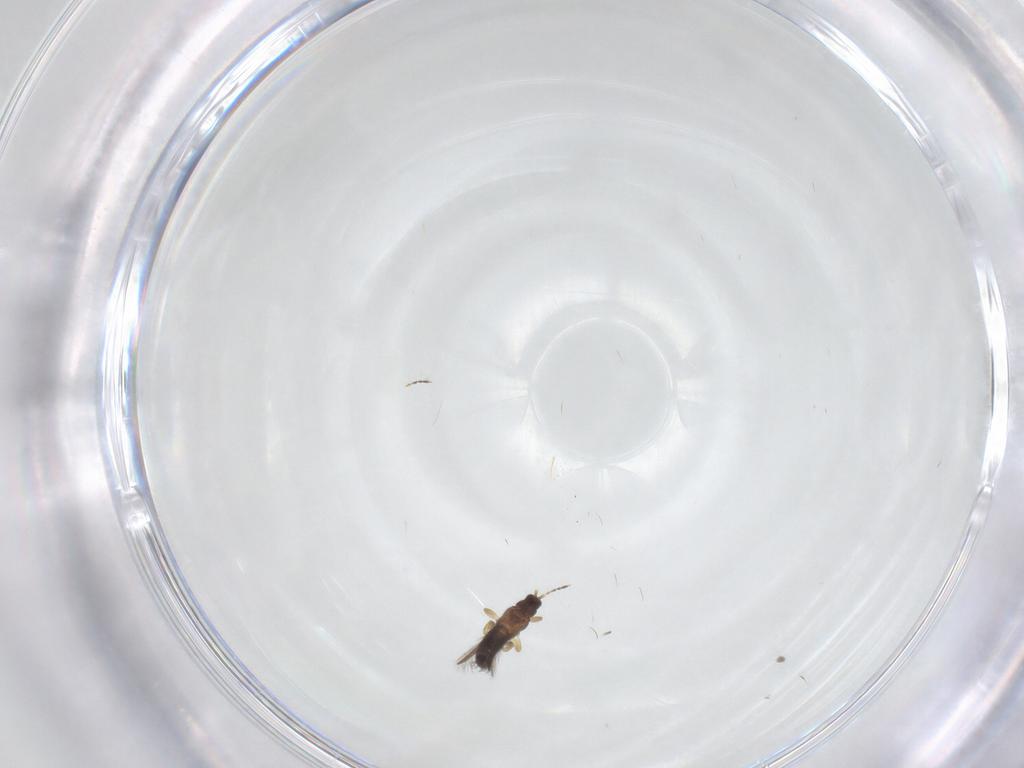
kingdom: Animalia
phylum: Arthropoda
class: Insecta
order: Thysanoptera
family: Thripidae
